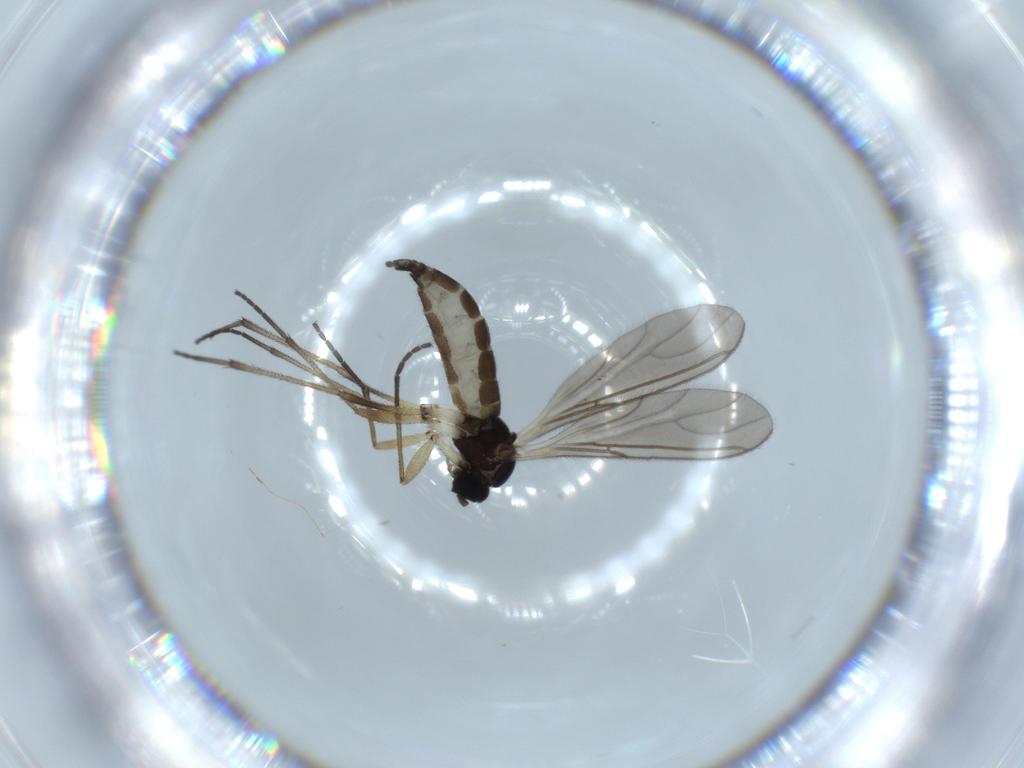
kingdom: Animalia
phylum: Arthropoda
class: Insecta
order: Diptera
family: Sciaridae
